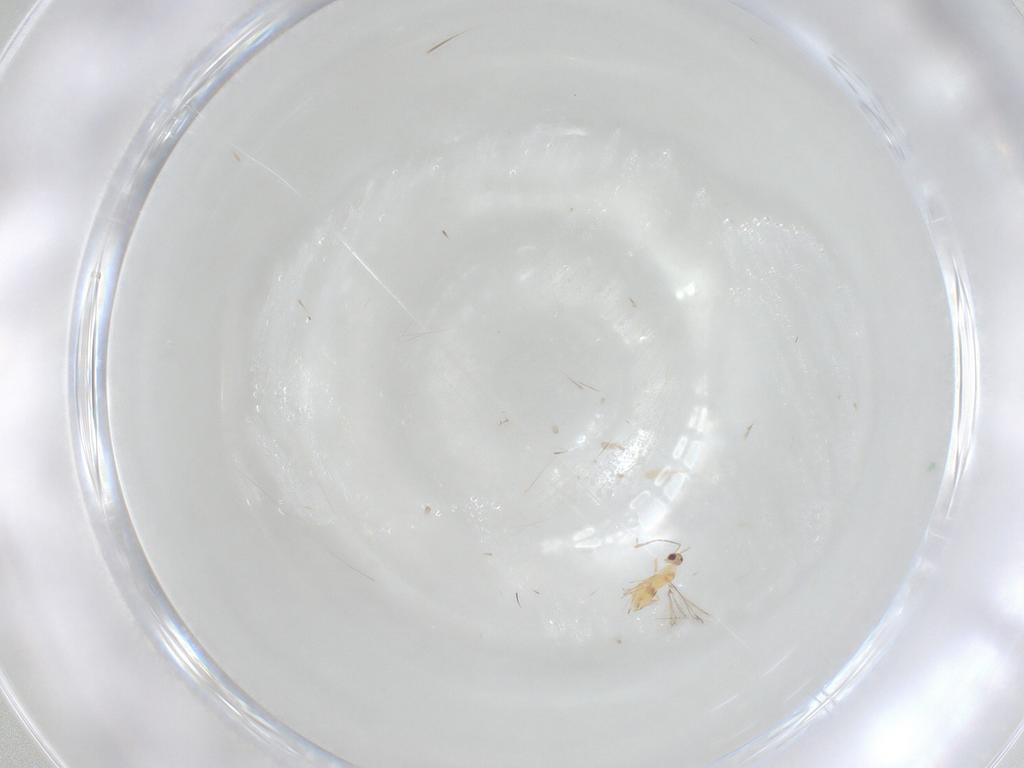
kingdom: Animalia
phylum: Arthropoda
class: Insecta
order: Hymenoptera
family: Mymaridae
